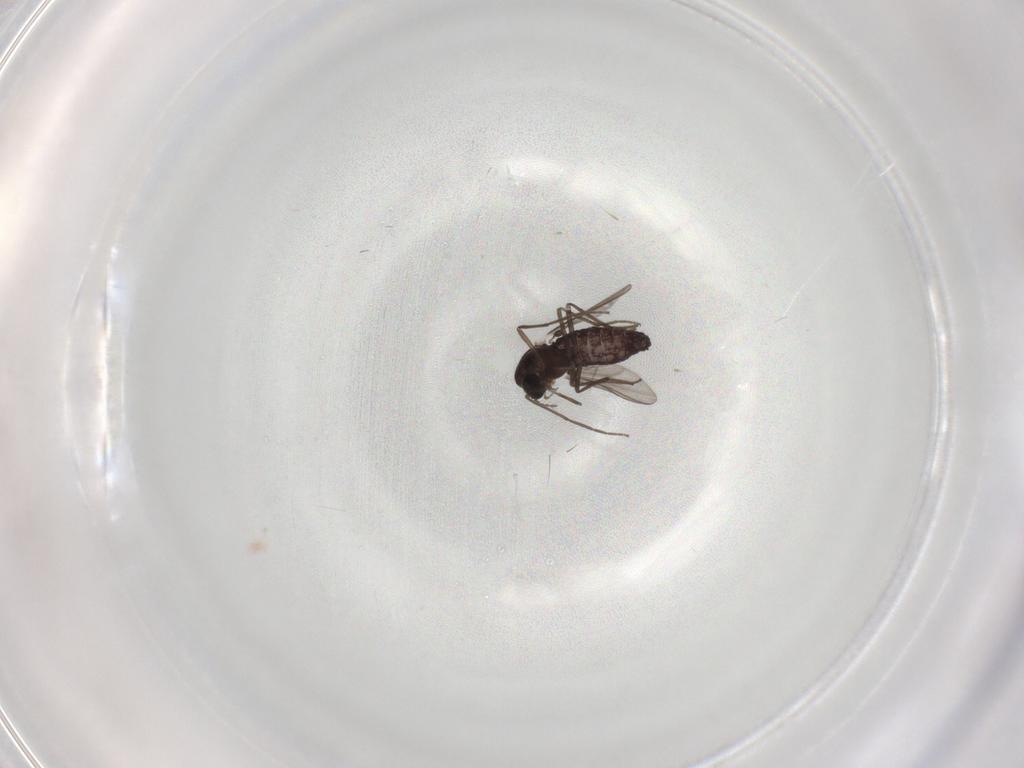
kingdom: Animalia
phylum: Arthropoda
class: Insecta
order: Diptera
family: Chironomidae
